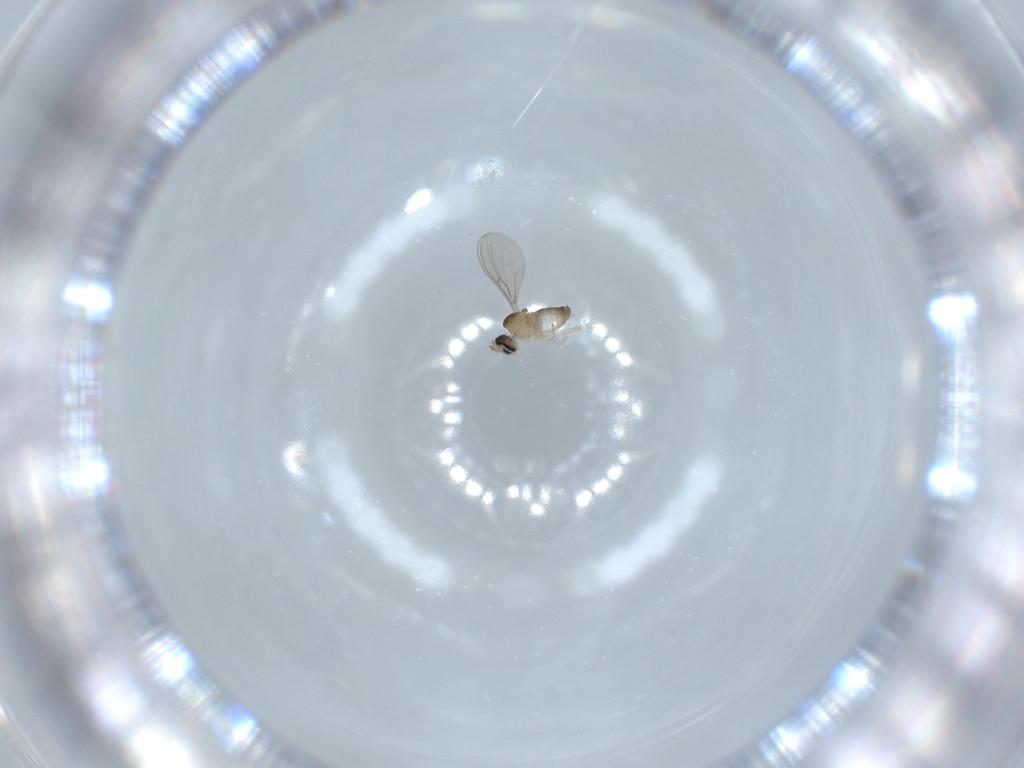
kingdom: Animalia
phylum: Arthropoda
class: Insecta
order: Diptera
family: Cecidomyiidae
